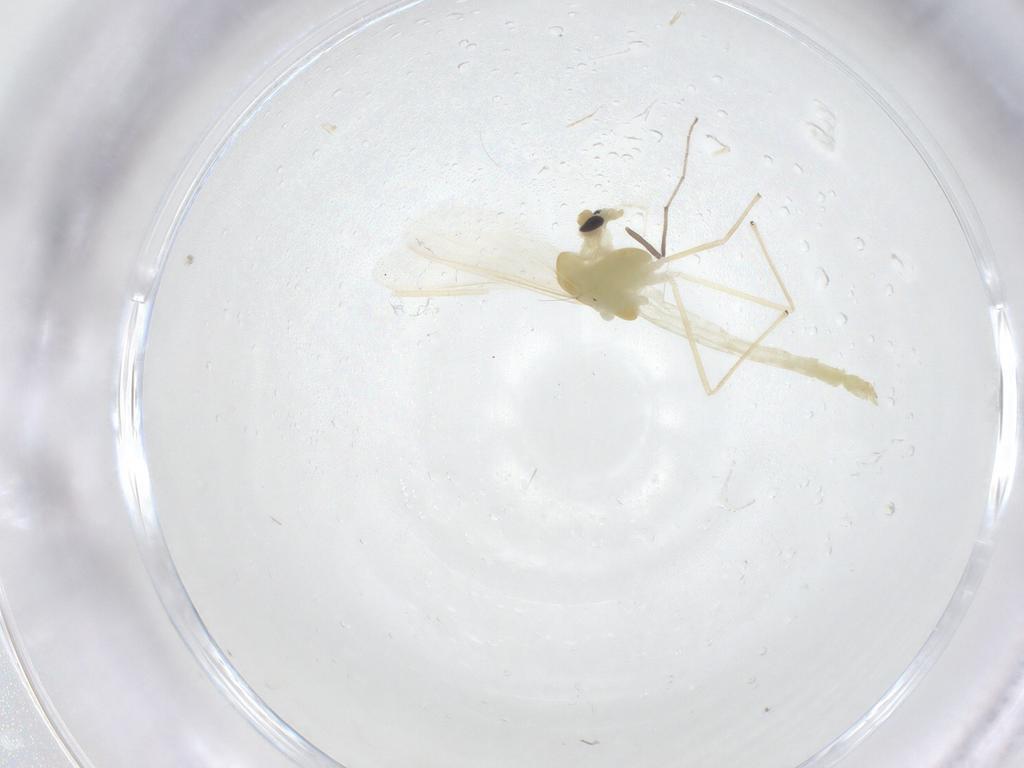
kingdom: Animalia
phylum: Arthropoda
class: Insecta
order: Diptera
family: Chironomidae
